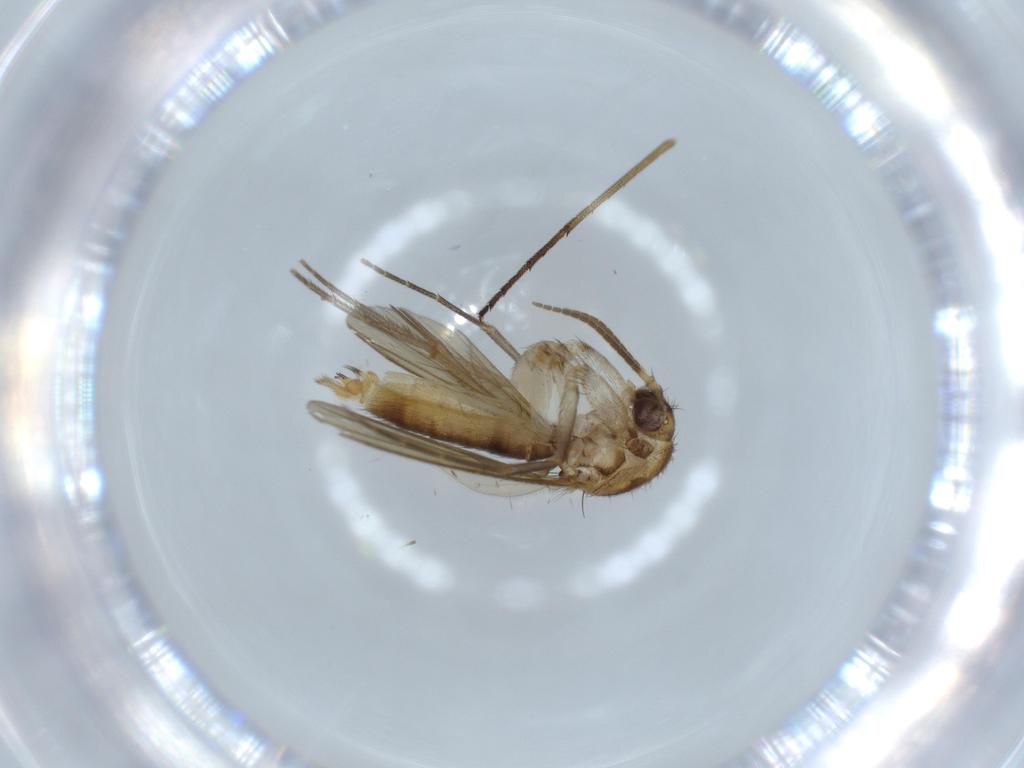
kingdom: Animalia
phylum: Arthropoda
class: Insecta
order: Diptera
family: Mycetophilidae
